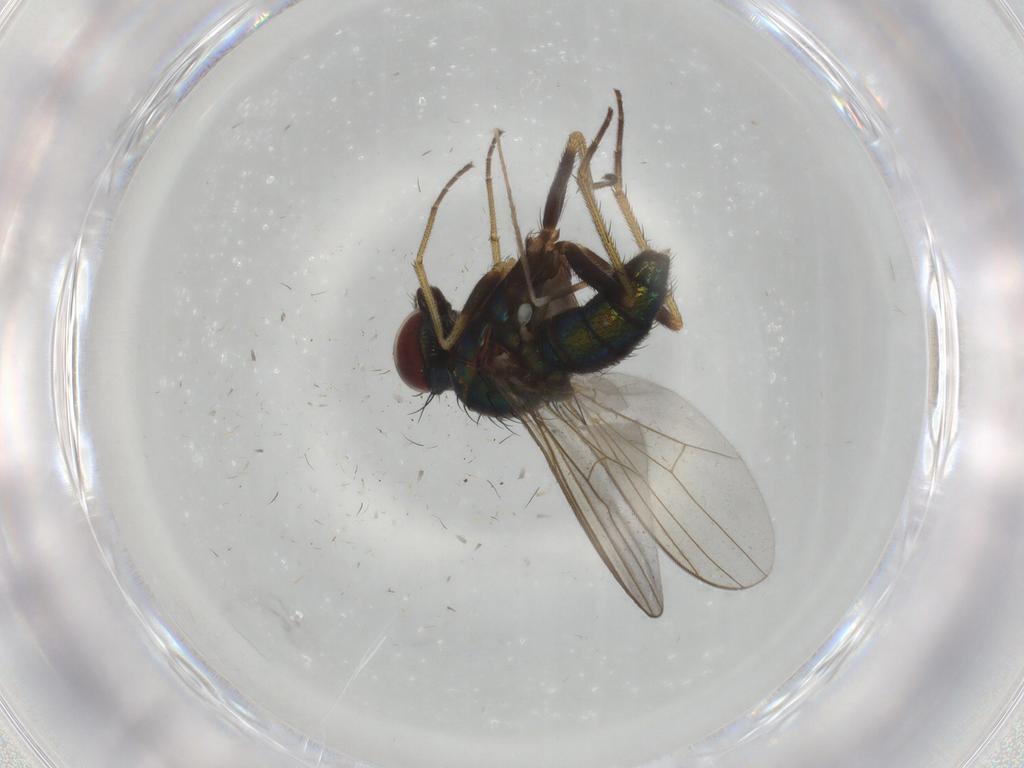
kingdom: Animalia
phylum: Arthropoda
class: Insecta
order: Diptera
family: Dolichopodidae
